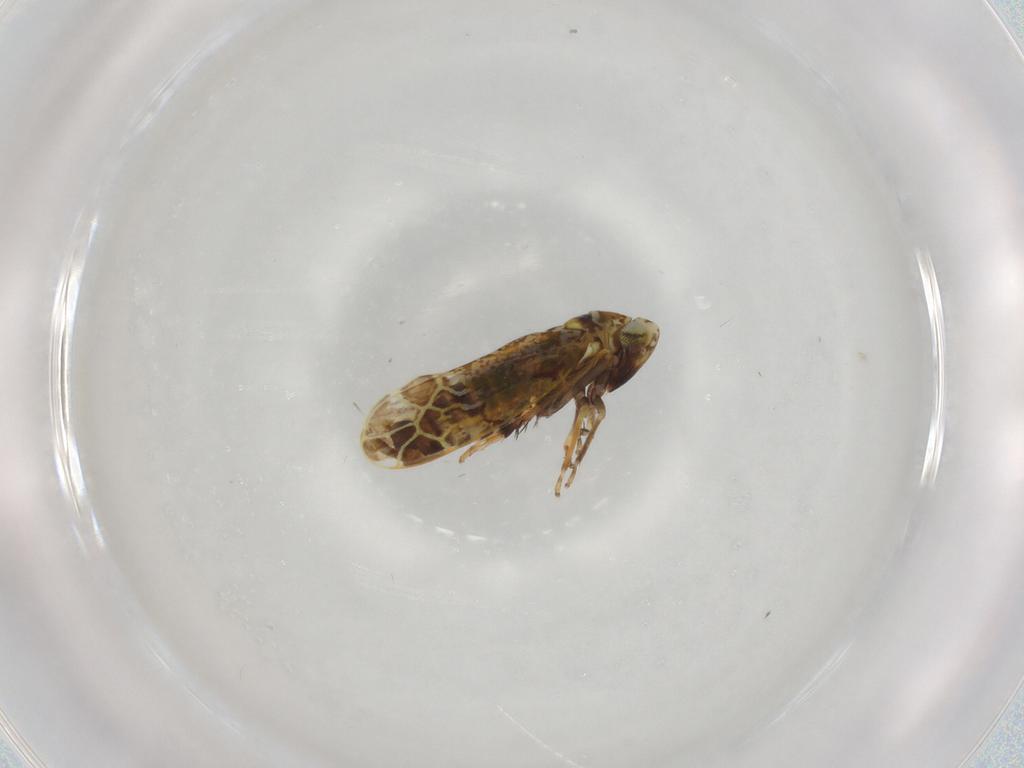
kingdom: Animalia
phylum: Arthropoda
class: Insecta
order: Hemiptera
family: Cicadellidae
